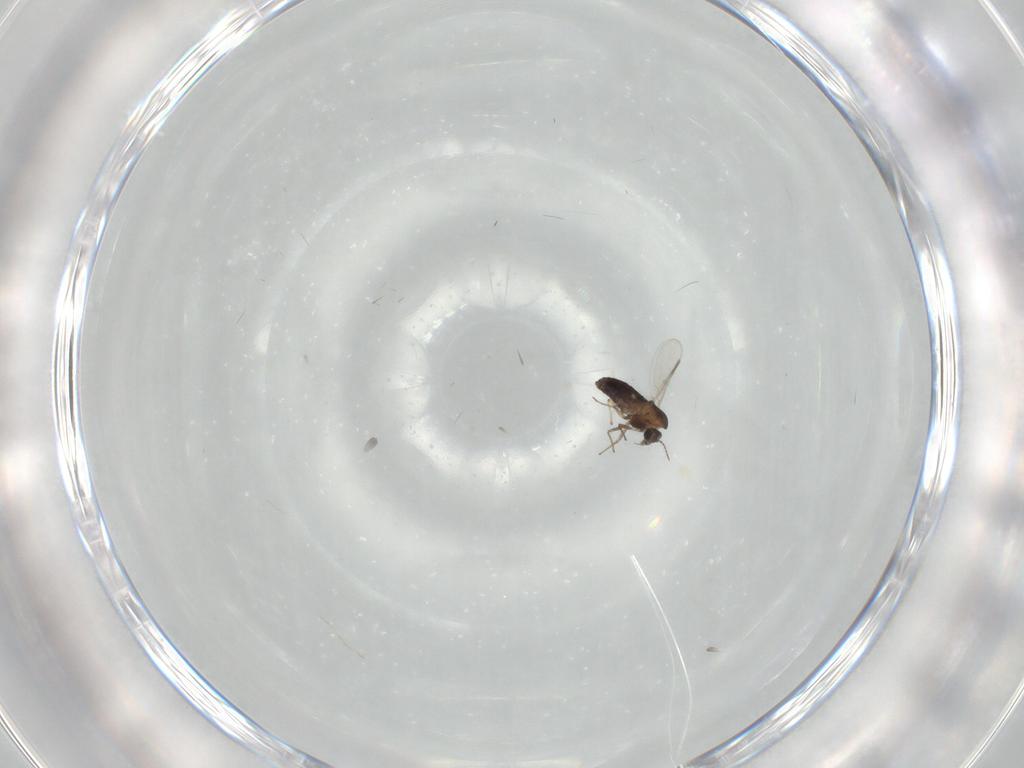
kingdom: Animalia
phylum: Arthropoda
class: Insecta
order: Diptera
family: Chironomidae
